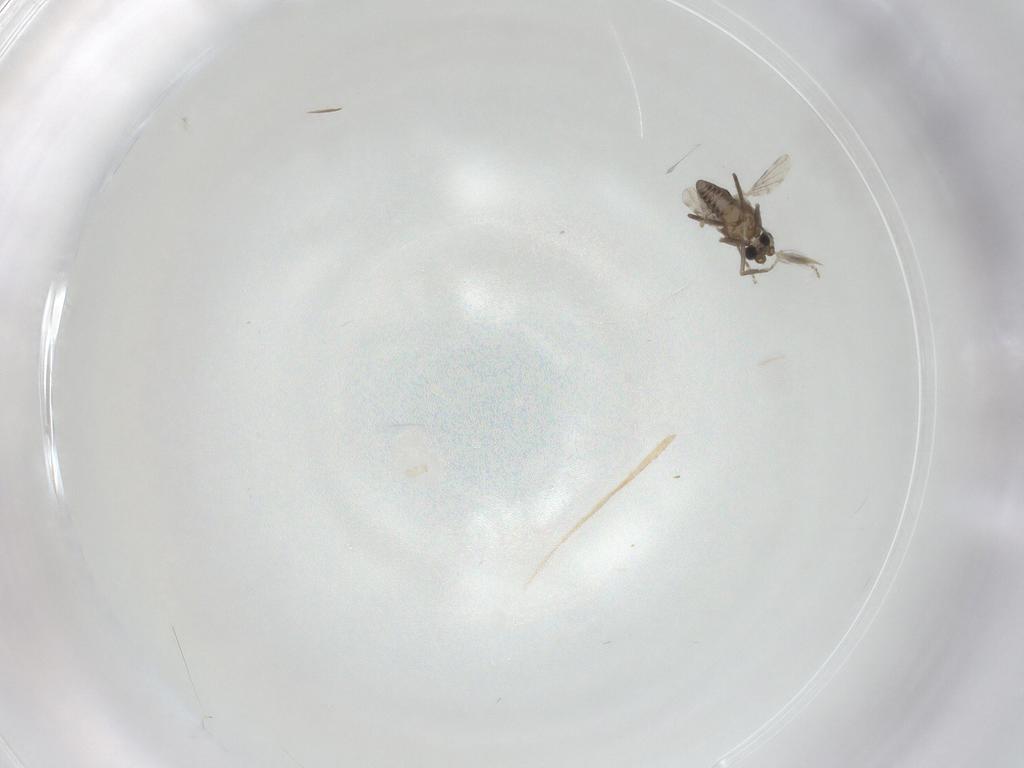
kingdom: Animalia
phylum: Arthropoda
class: Insecta
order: Diptera
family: Ceratopogonidae
